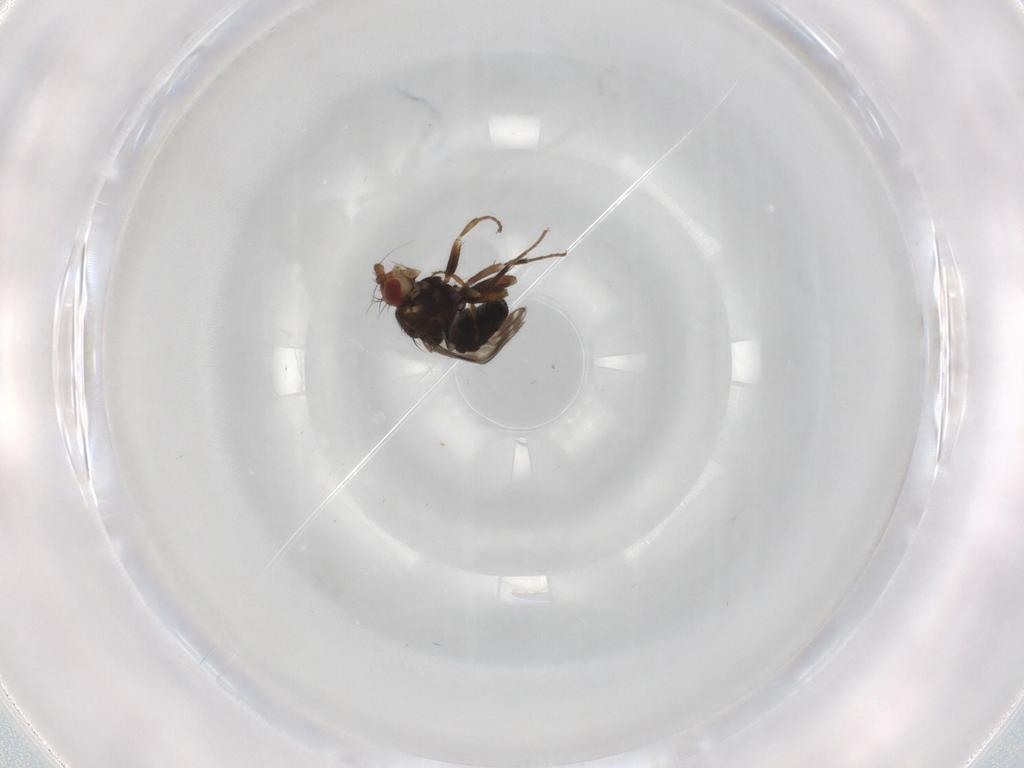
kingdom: Animalia
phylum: Arthropoda
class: Insecta
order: Diptera
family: Sphaeroceridae
